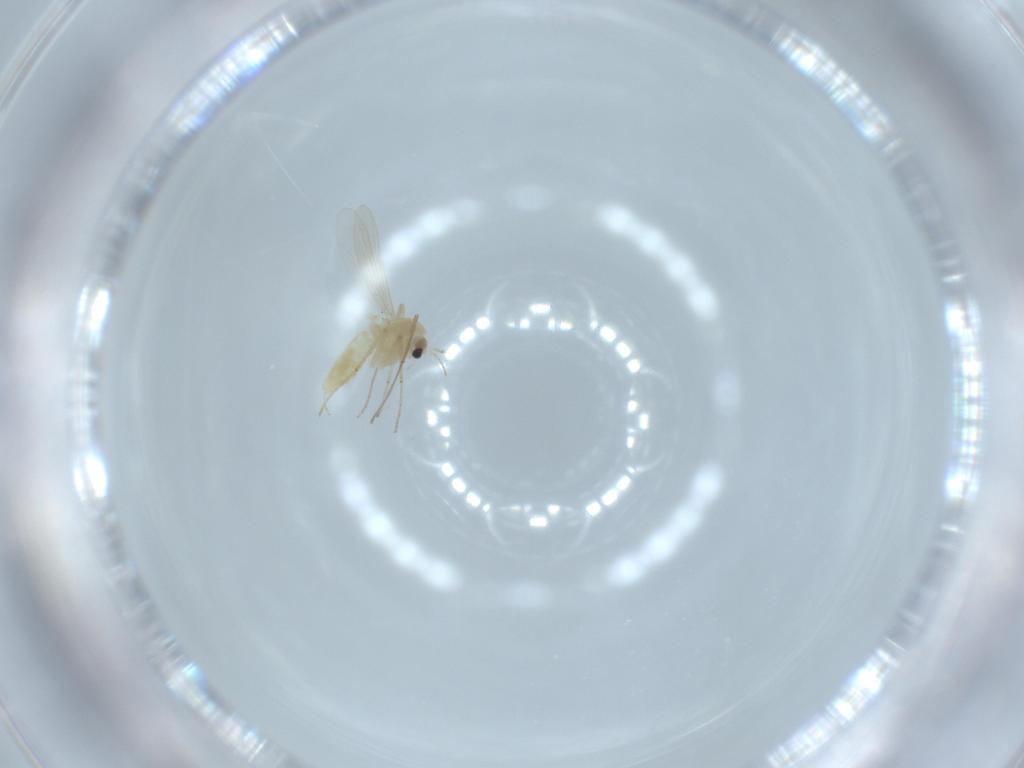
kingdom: Animalia
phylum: Arthropoda
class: Insecta
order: Diptera
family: Chironomidae
